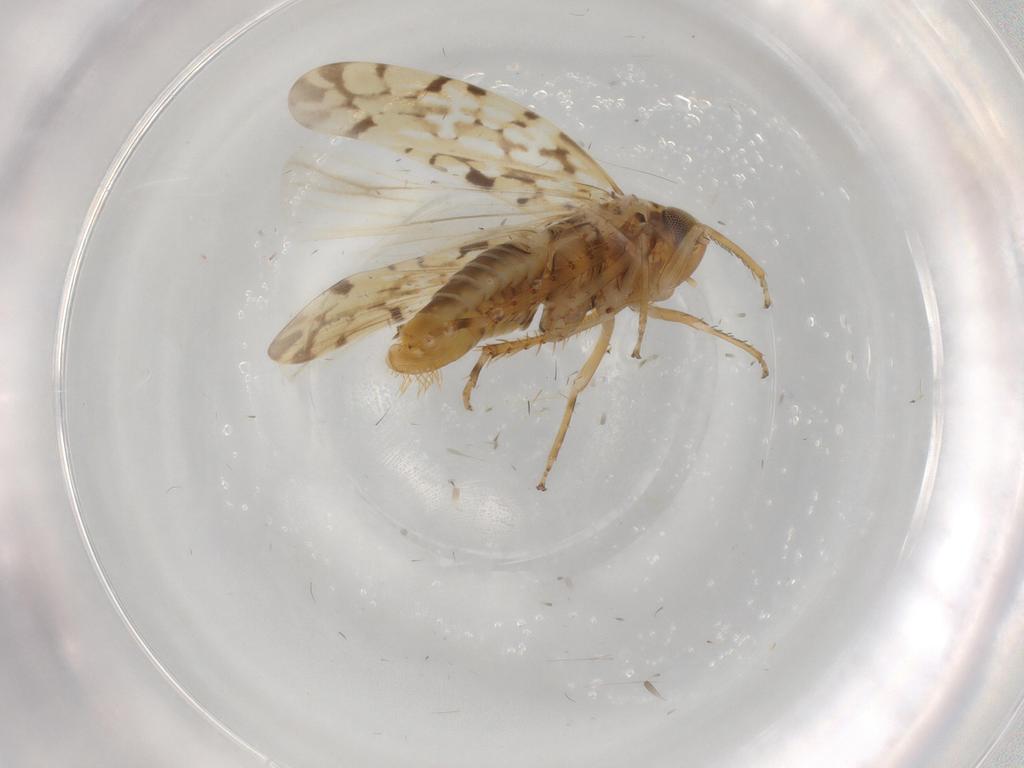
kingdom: Animalia
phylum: Arthropoda
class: Insecta
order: Hemiptera
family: Cicadellidae
